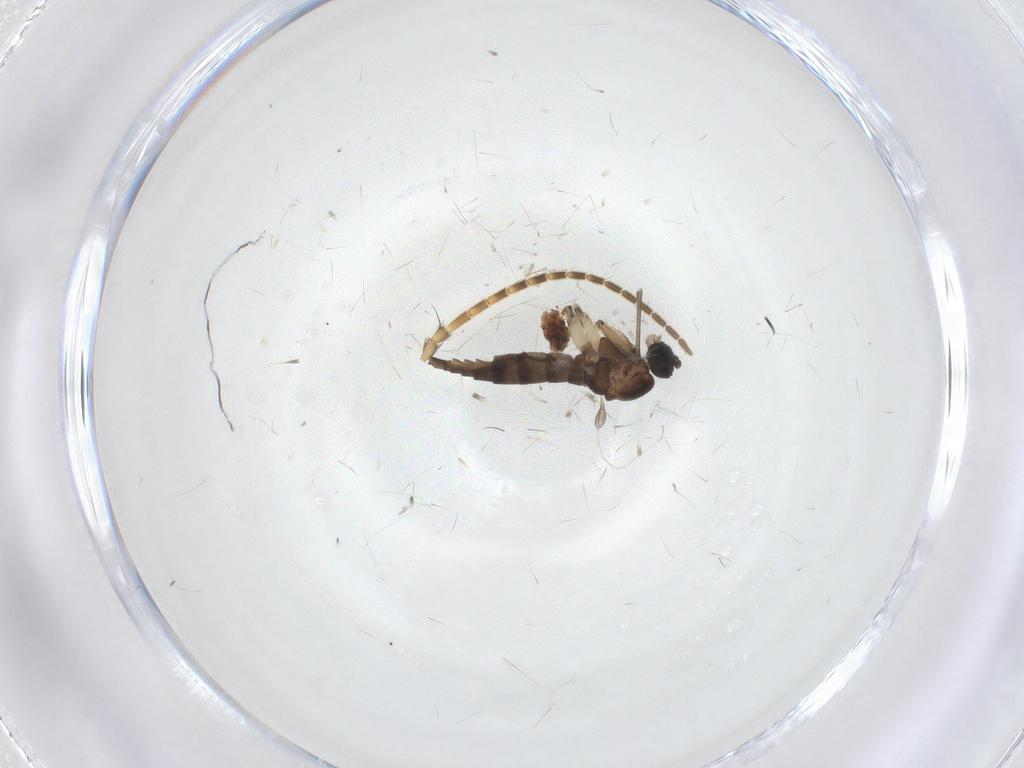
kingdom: Animalia
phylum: Arthropoda
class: Insecta
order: Diptera
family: Sciaridae
